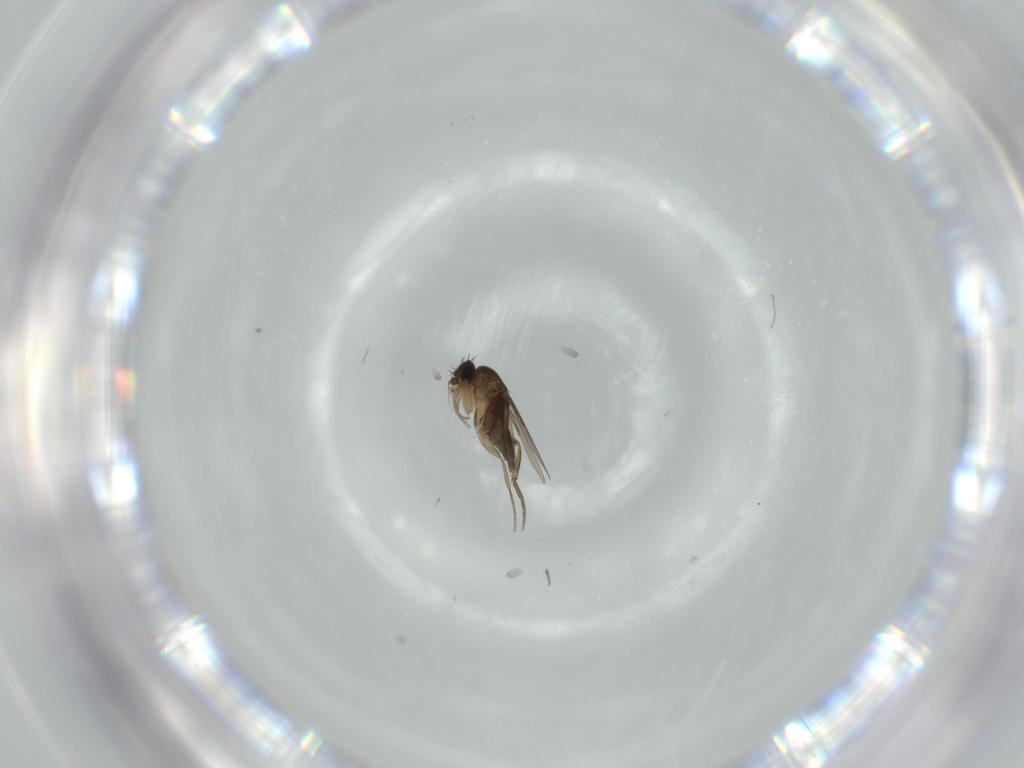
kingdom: Animalia
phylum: Arthropoda
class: Insecta
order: Diptera
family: Phoridae
